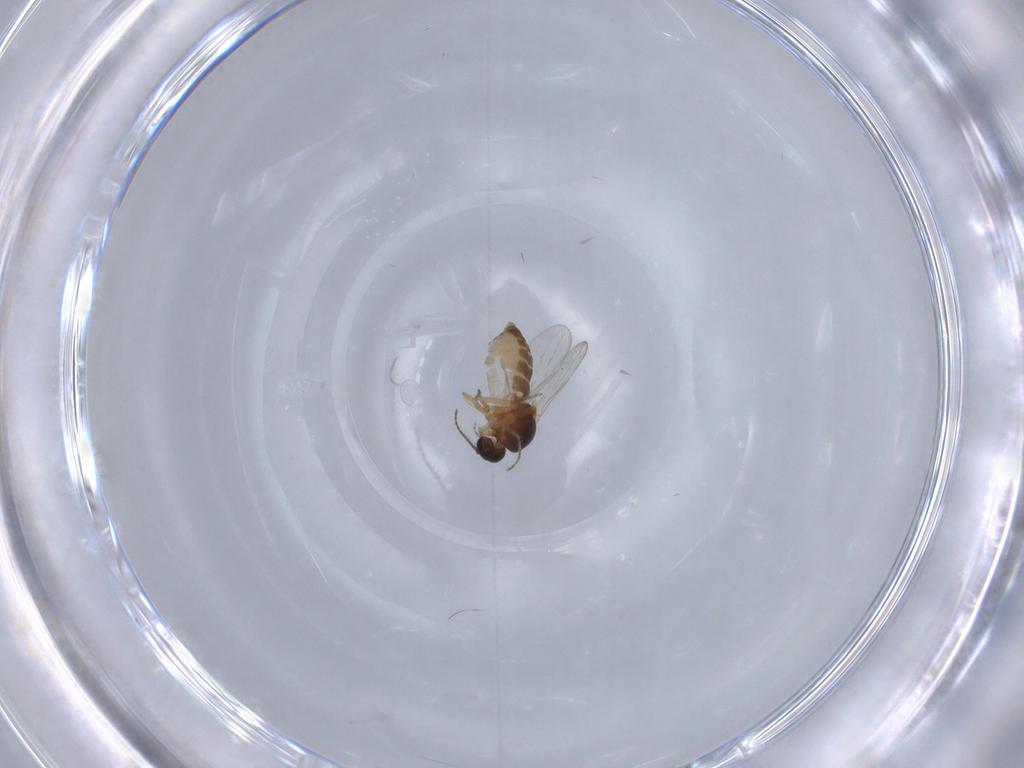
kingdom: Animalia
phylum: Arthropoda
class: Insecta
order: Diptera
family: Ceratopogonidae
